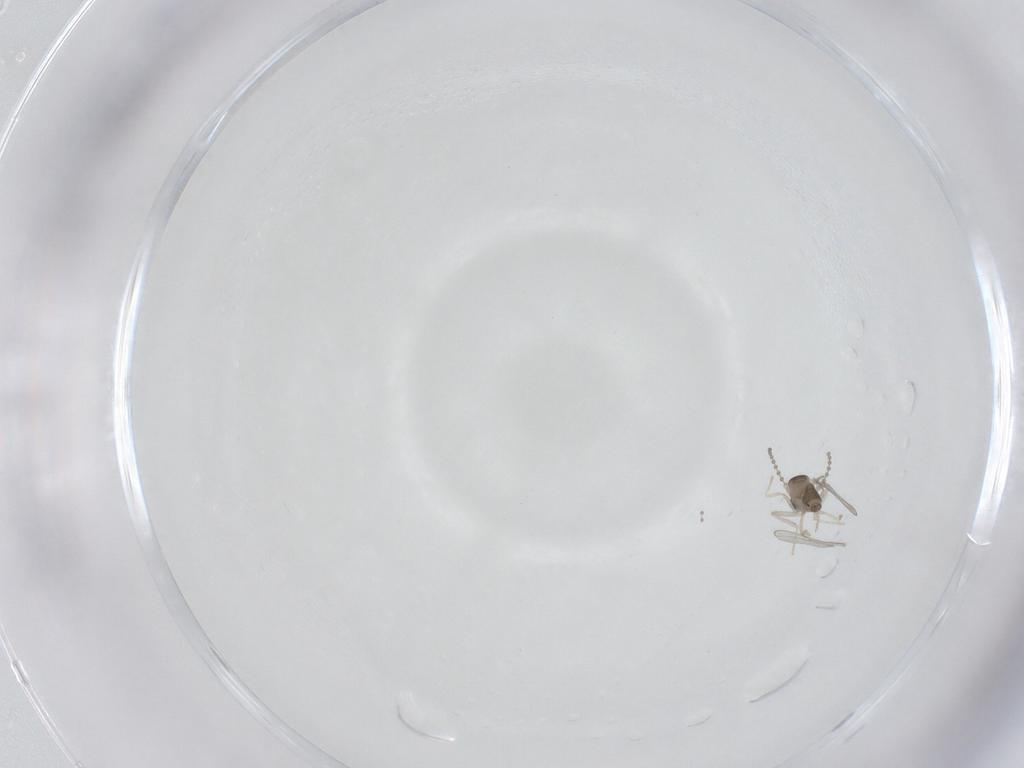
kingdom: Animalia
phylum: Arthropoda
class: Insecta
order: Diptera
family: Cecidomyiidae
